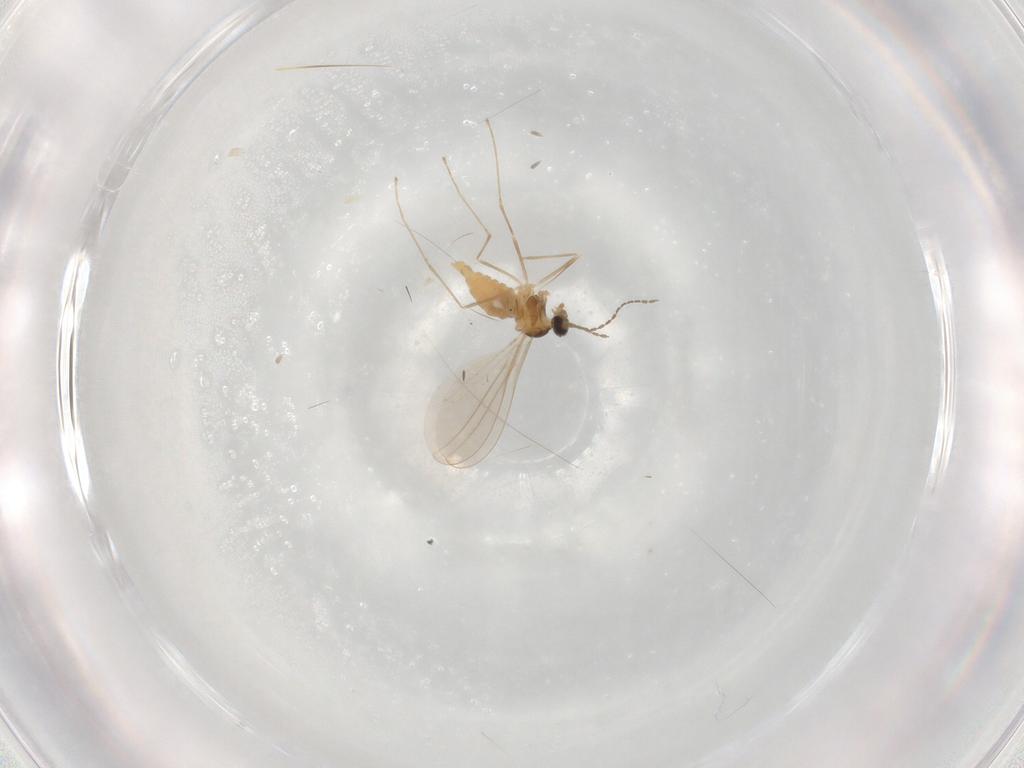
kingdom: Animalia
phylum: Arthropoda
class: Insecta
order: Diptera
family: Cecidomyiidae
